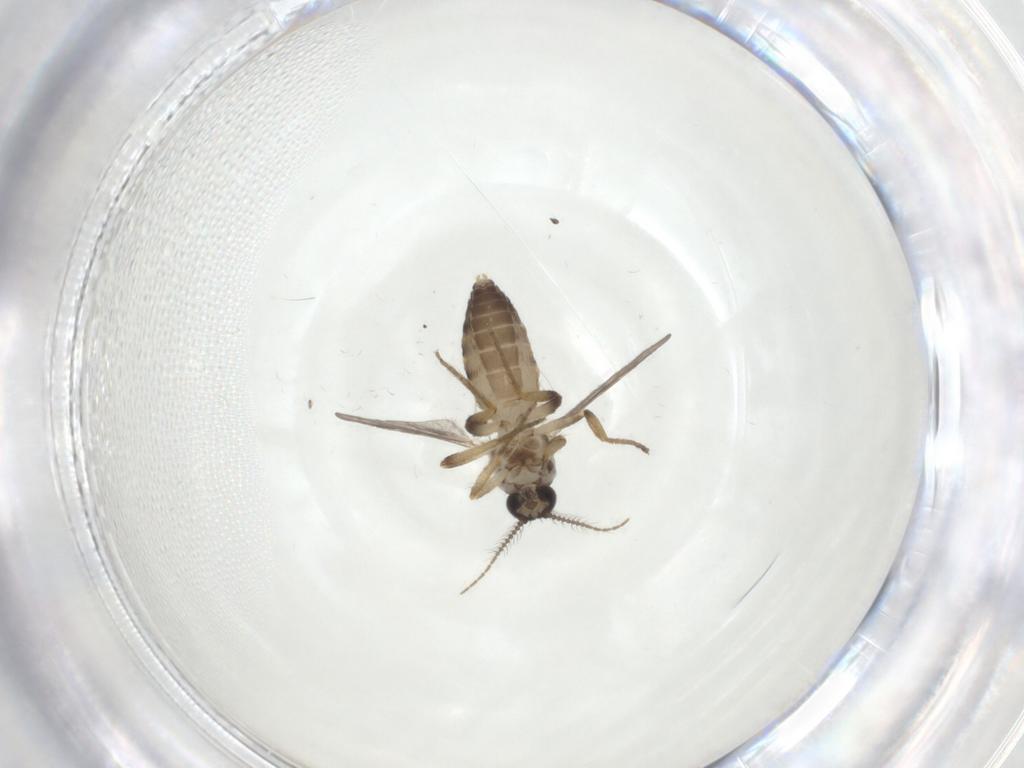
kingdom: Animalia
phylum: Arthropoda
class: Insecta
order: Diptera
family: Ceratopogonidae
